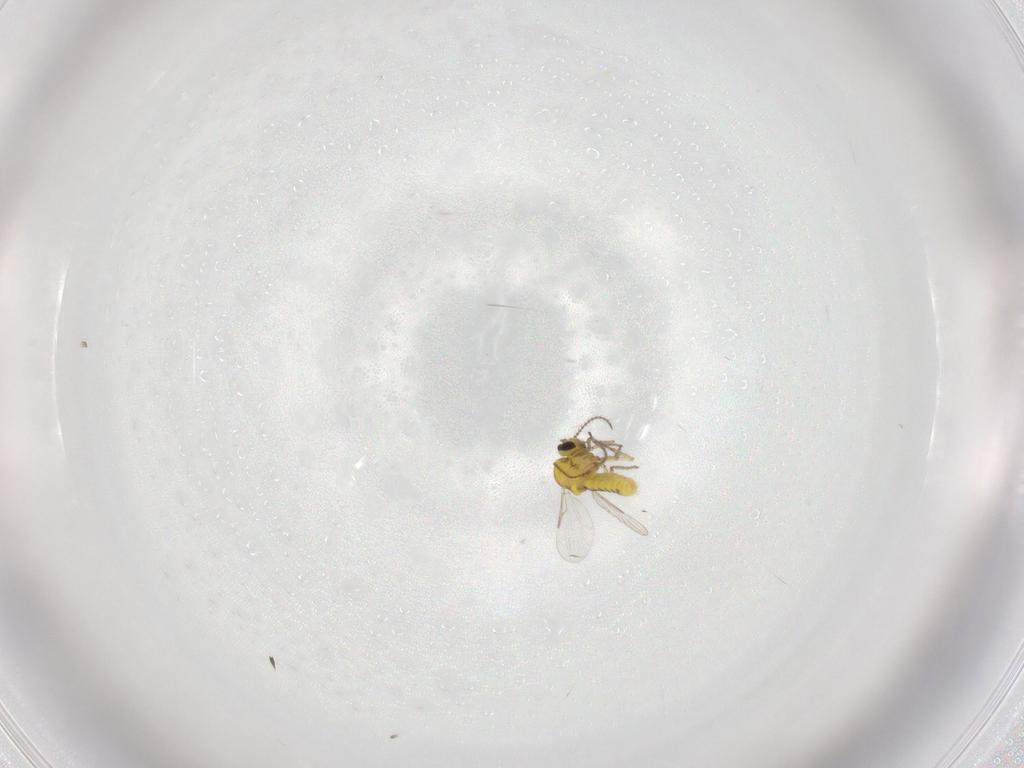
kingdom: Animalia
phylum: Arthropoda
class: Insecta
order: Diptera
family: Ceratopogonidae
